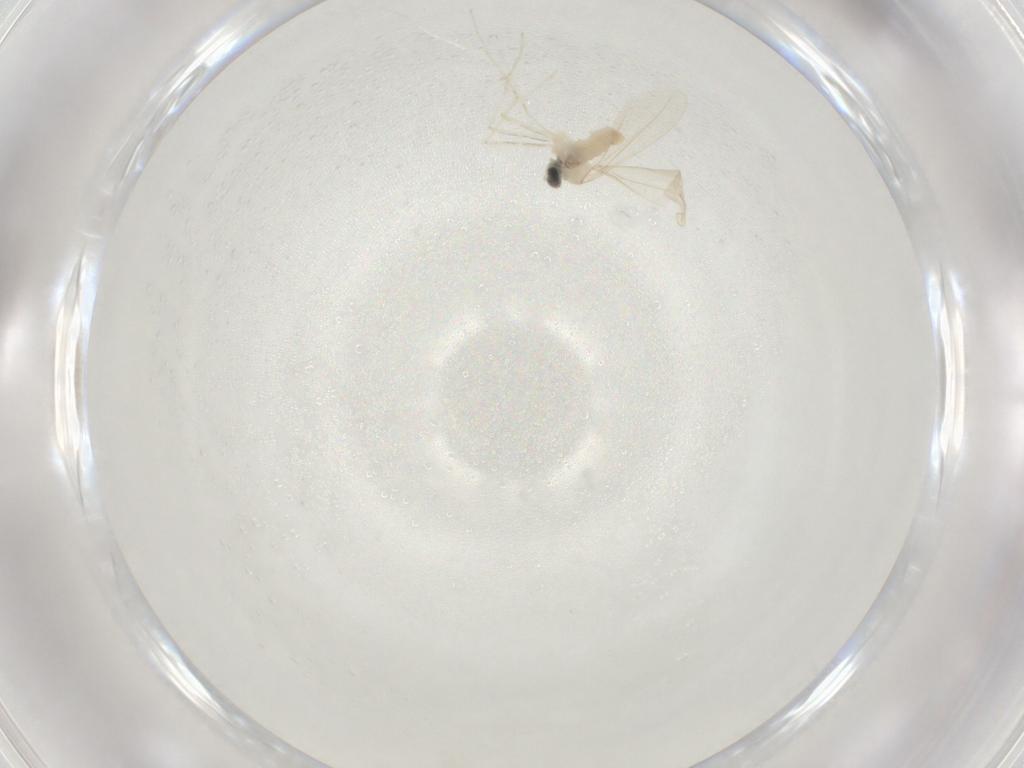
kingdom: Animalia
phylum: Arthropoda
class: Insecta
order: Diptera
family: Cecidomyiidae
